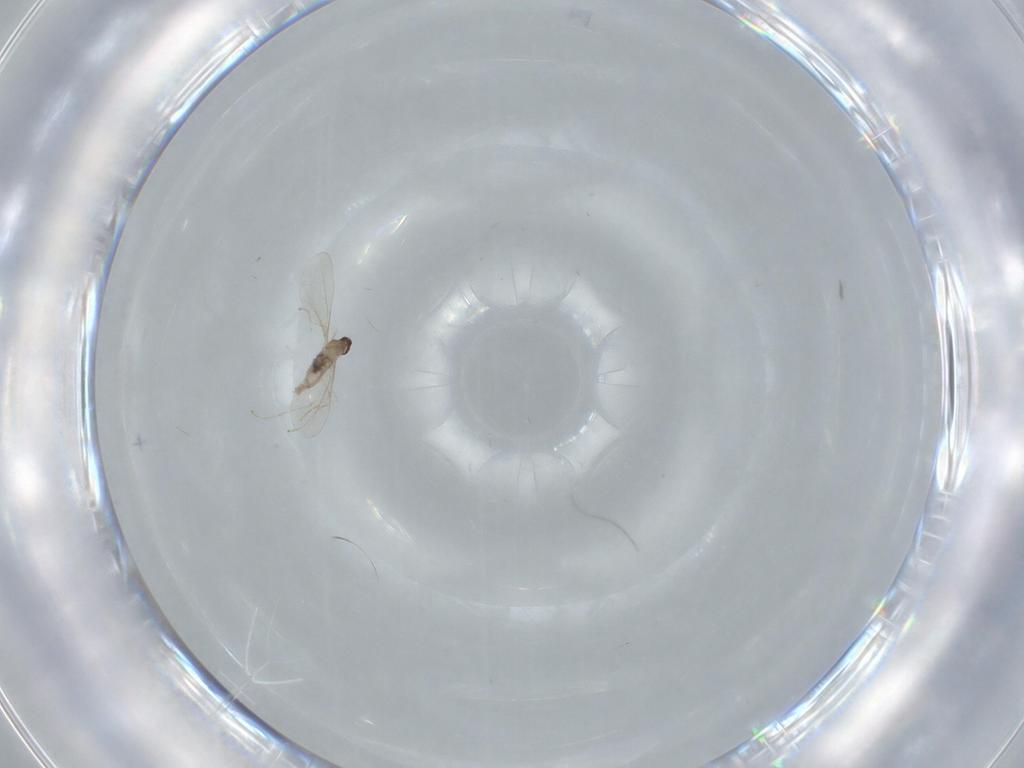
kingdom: Animalia
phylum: Arthropoda
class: Insecta
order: Diptera
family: Cecidomyiidae
